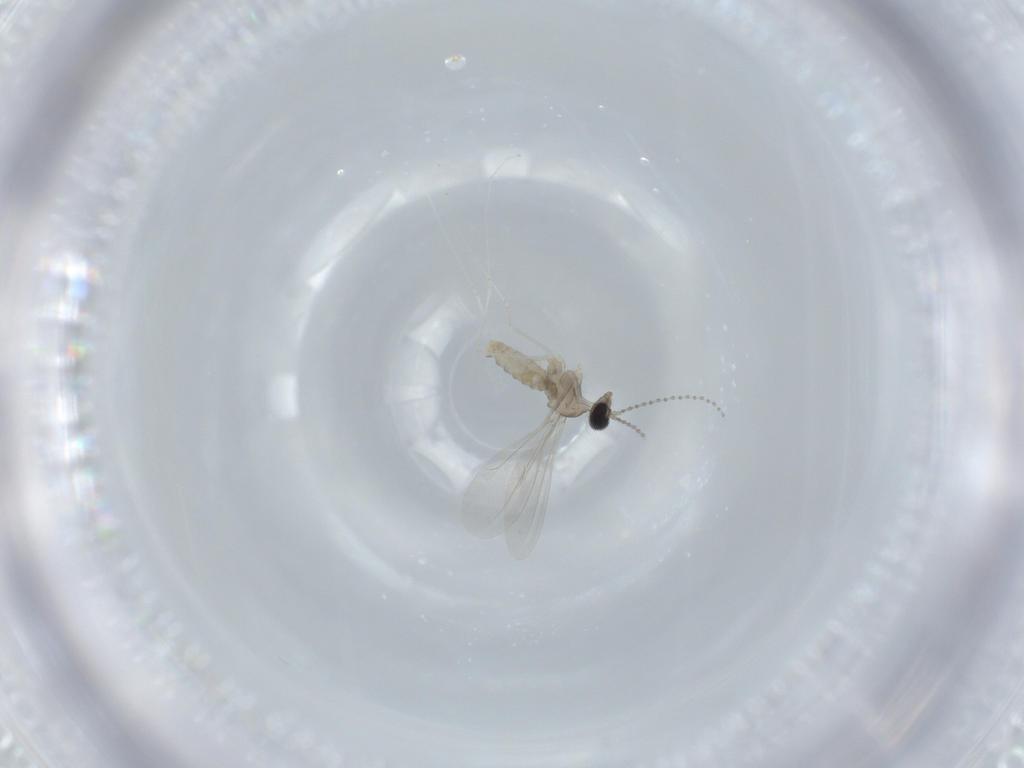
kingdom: Animalia
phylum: Arthropoda
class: Insecta
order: Diptera
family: Cecidomyiidae
